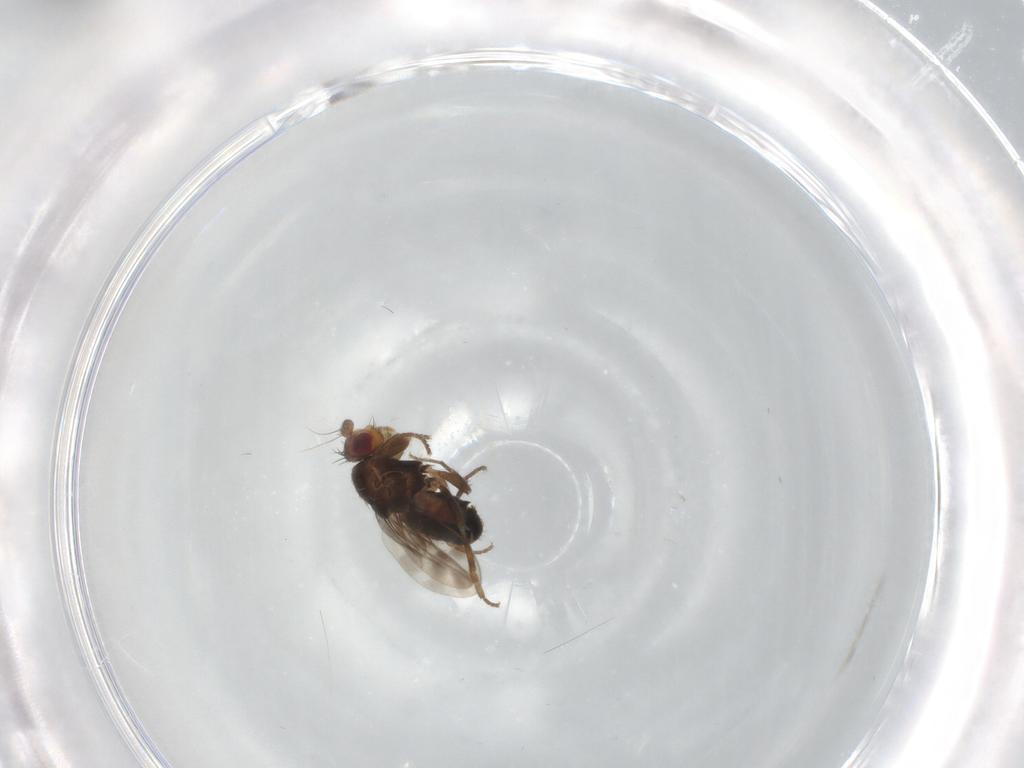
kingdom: Animalia
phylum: Arthropoda
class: Insecta
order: Diptera
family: Sphaeroceridae
